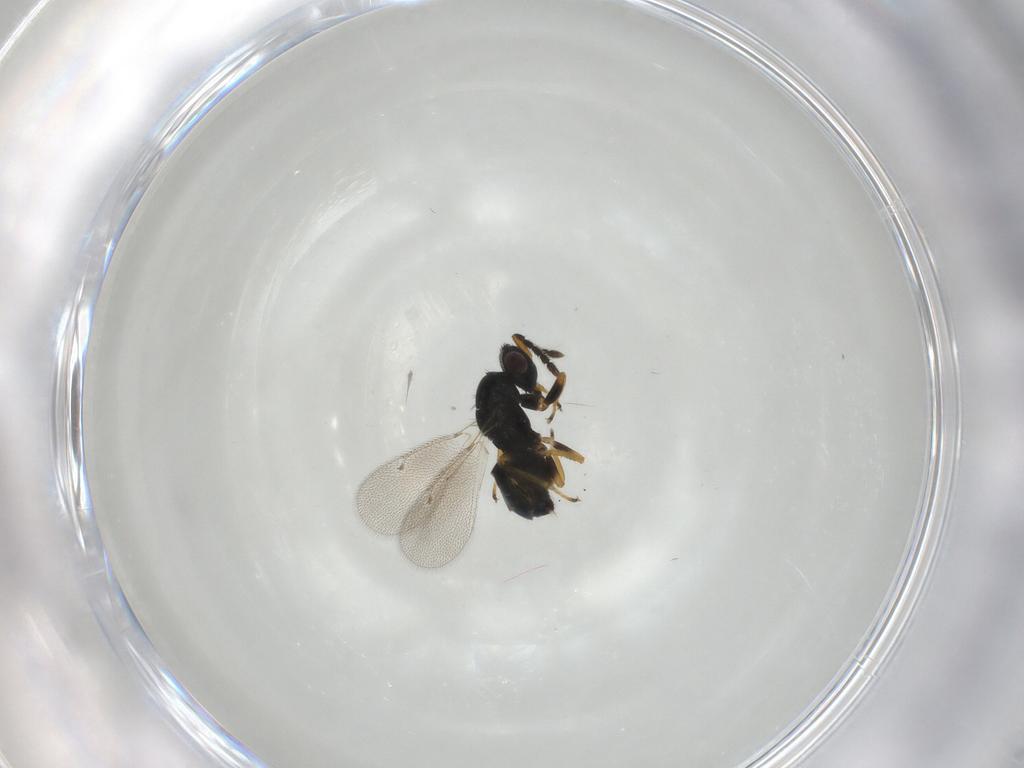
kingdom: Animalia
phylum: Arthropoda
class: Insecta
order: Hymenoptera
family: Eulophidae
